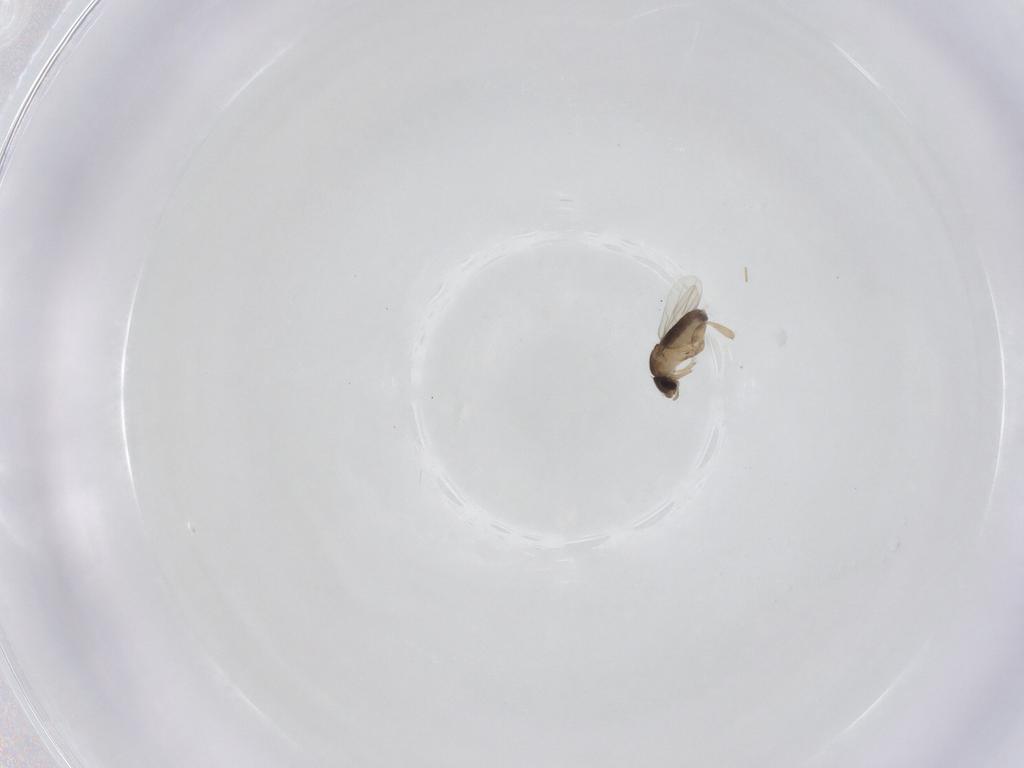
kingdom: Animalia
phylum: Arthropoda
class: Insecta
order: Diptera
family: Phoridae
